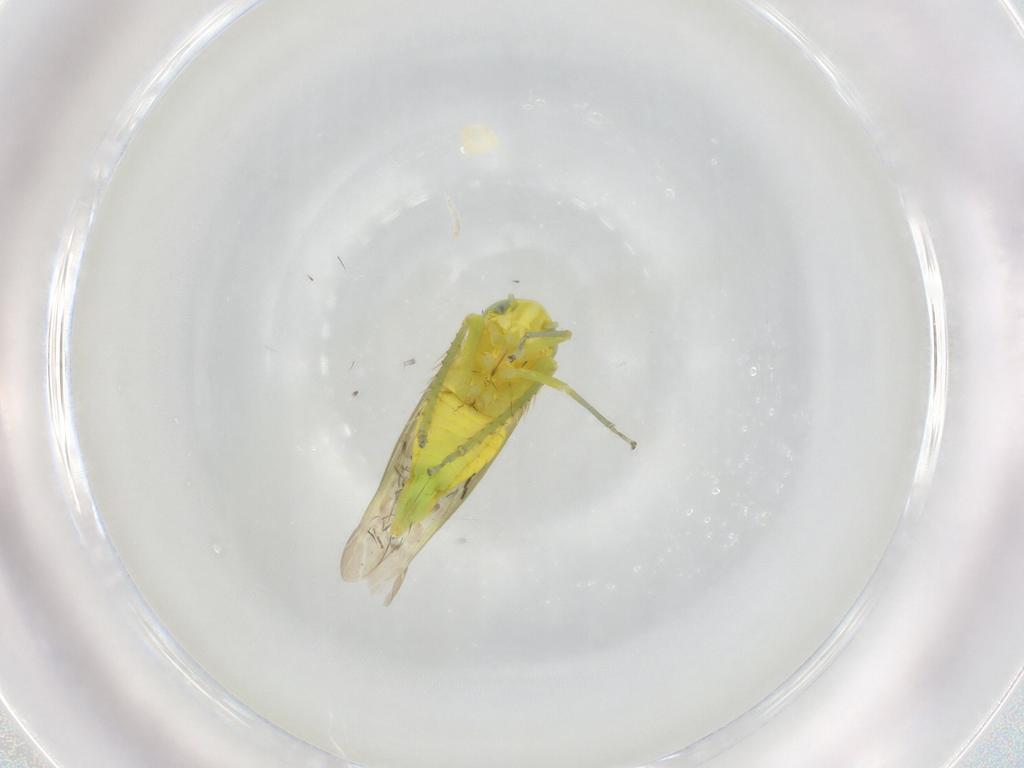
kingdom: Animalia
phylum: Arthropoda
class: Insecta
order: Hemiptera
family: Cicadellidae
